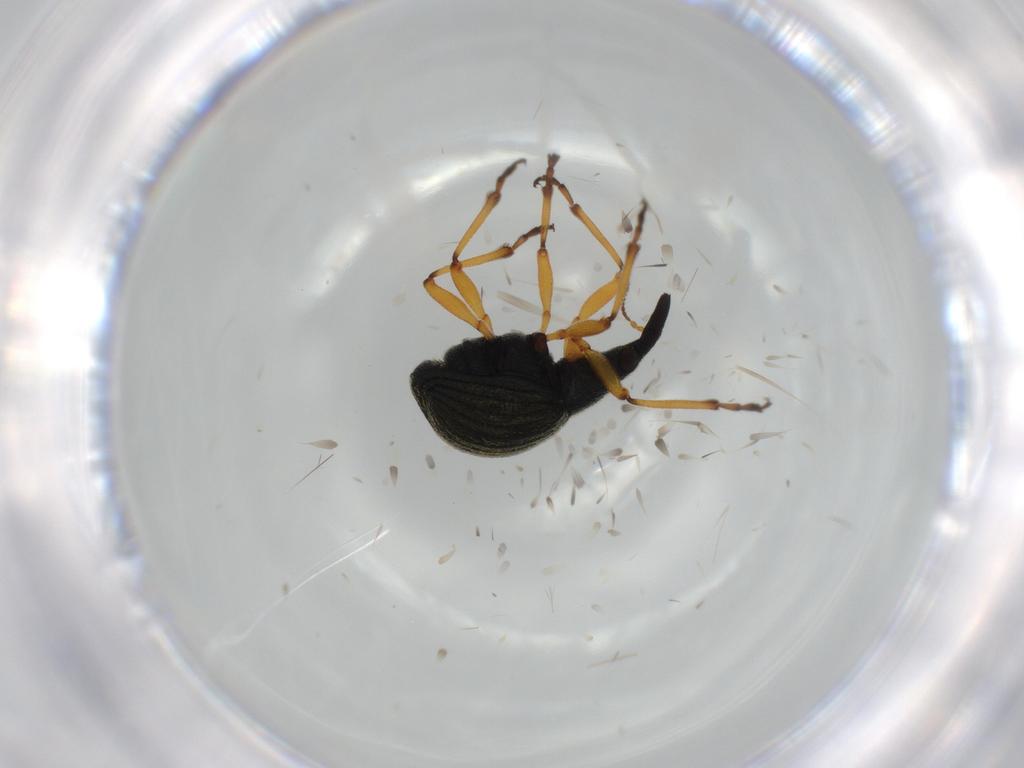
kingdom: Animalia
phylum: Arthropoda
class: Insecta
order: Coleoptera
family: Brentidae
